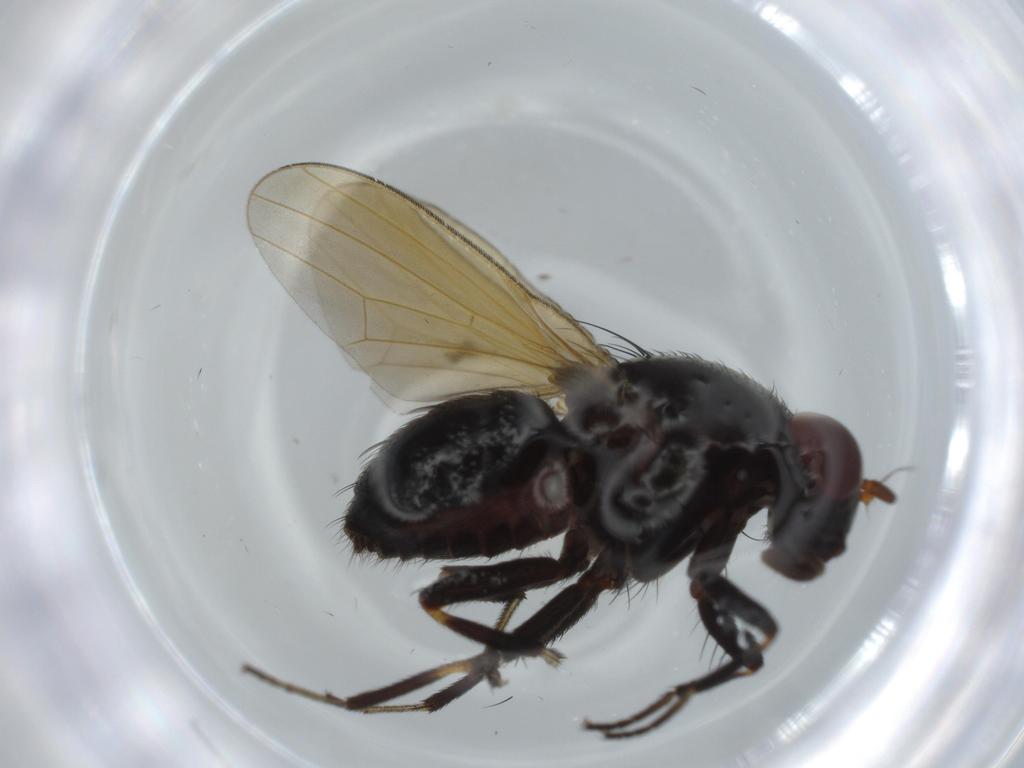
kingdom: Animalia
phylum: Arthropoda
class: Insecta
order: Diptera
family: Lauxaniidae
